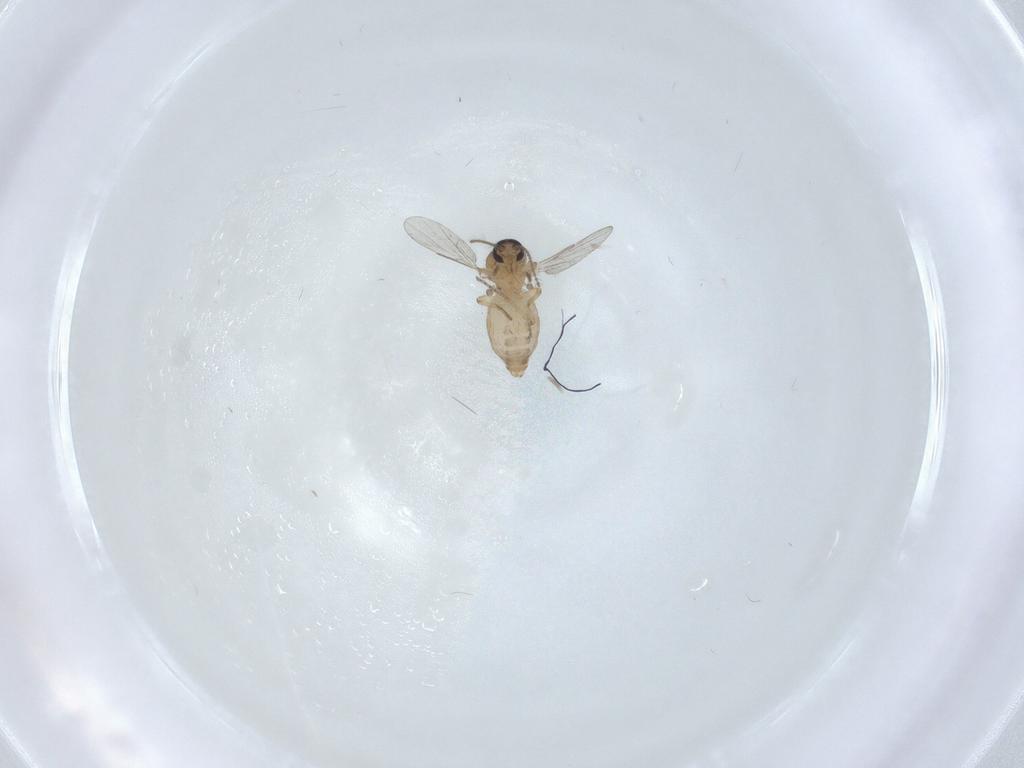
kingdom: Animalia
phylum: Arthropoda
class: Insecta
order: Diptera
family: Ceratopogonidae
